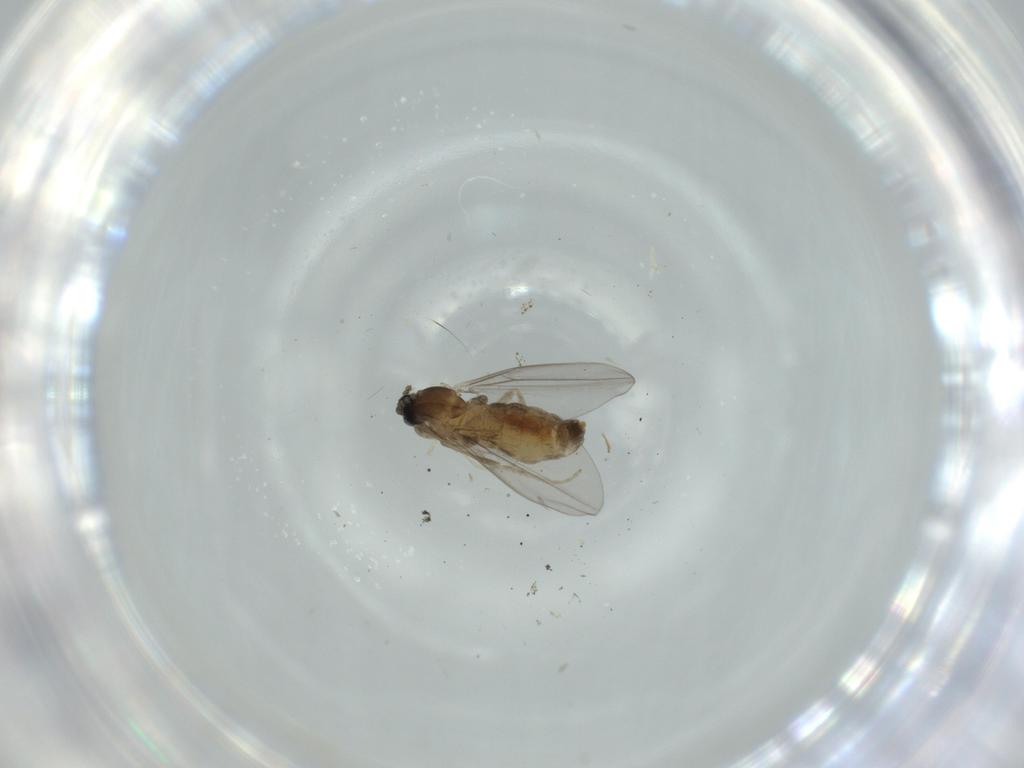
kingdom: Animalia
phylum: Arthropoda
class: Insecta
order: Diptera
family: Cecidomyiidae
